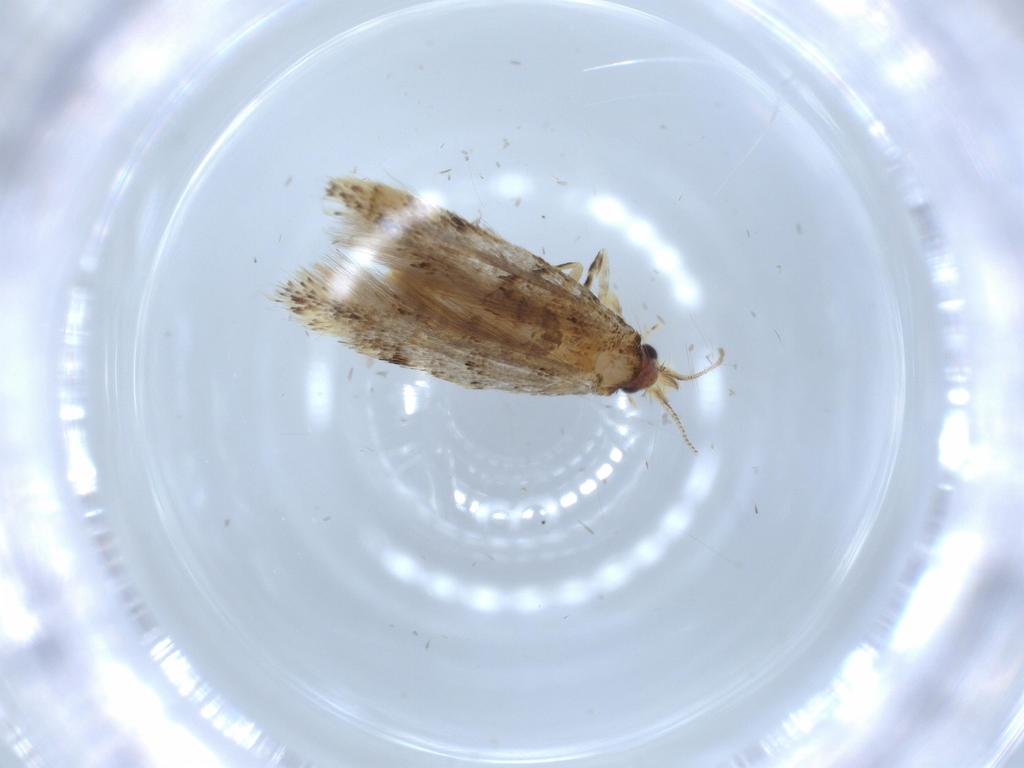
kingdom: Animalia
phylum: Arthropoda
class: Insecta
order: Lepidoptera
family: Tineidae
